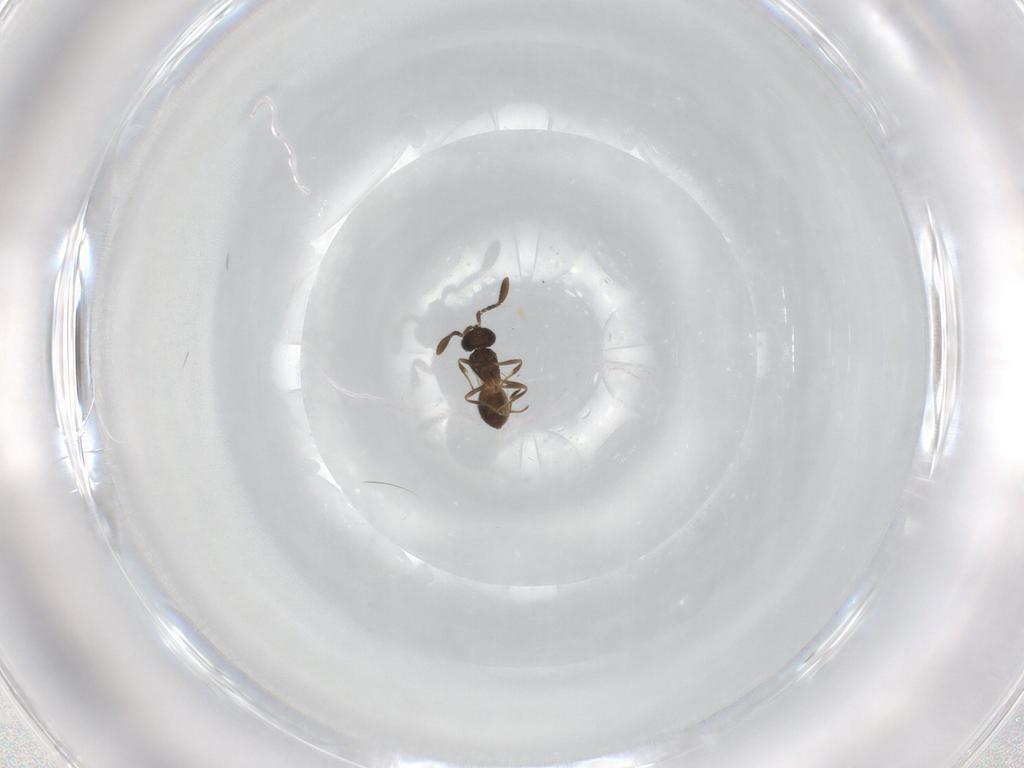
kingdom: Animalia
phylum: Arthropoda
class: Insecta
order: Hymenoptera
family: Scelionidae
